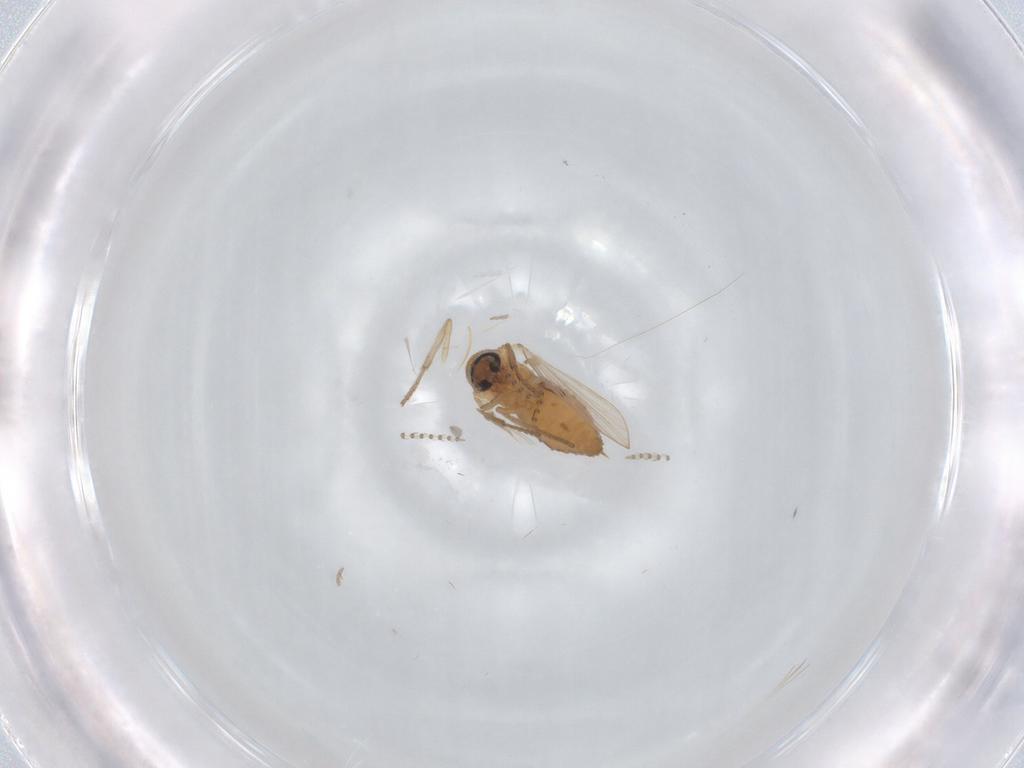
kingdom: Animalia
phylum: Arthropoda
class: Insecta
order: Diptera
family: Psychodidae
